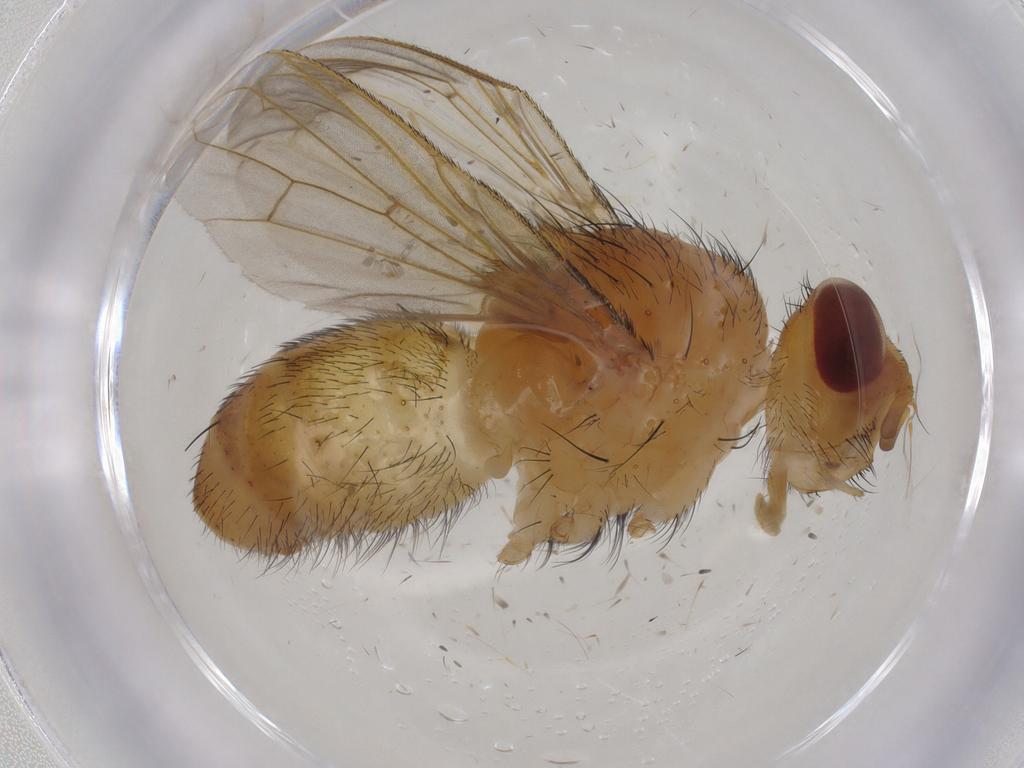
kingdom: Animalia
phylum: Arthropoda
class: Insecta
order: Diptera
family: Tachinidae
